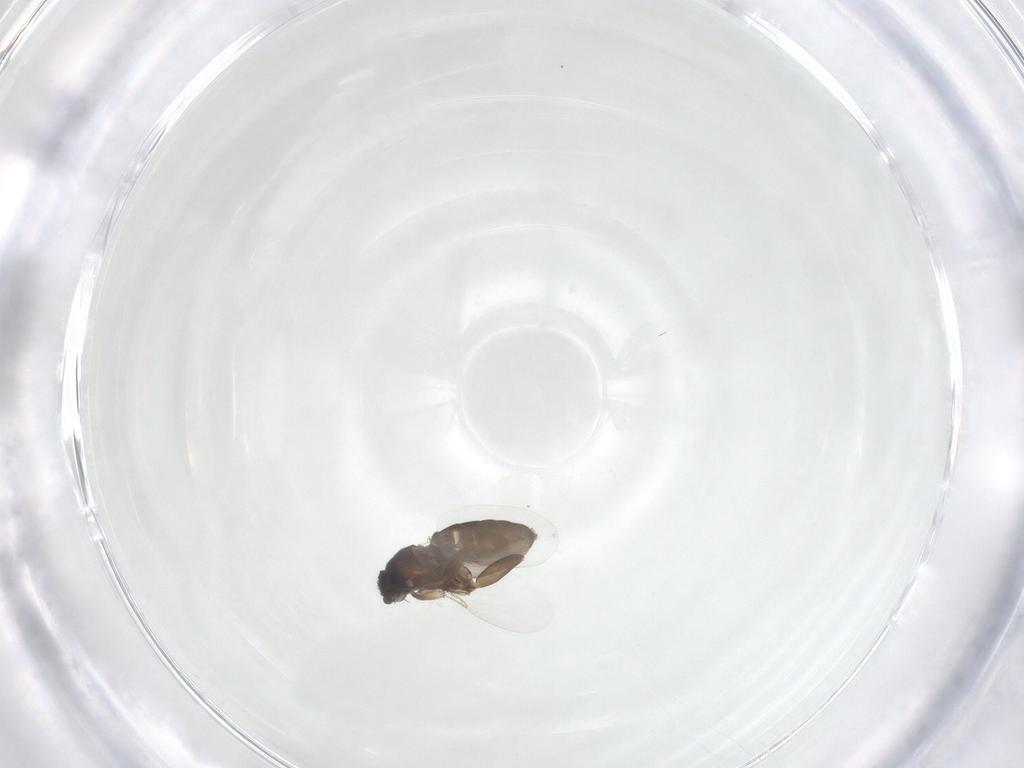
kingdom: Animalia
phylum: Arthropoda
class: Insecta
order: Diptera
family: Phoridae
